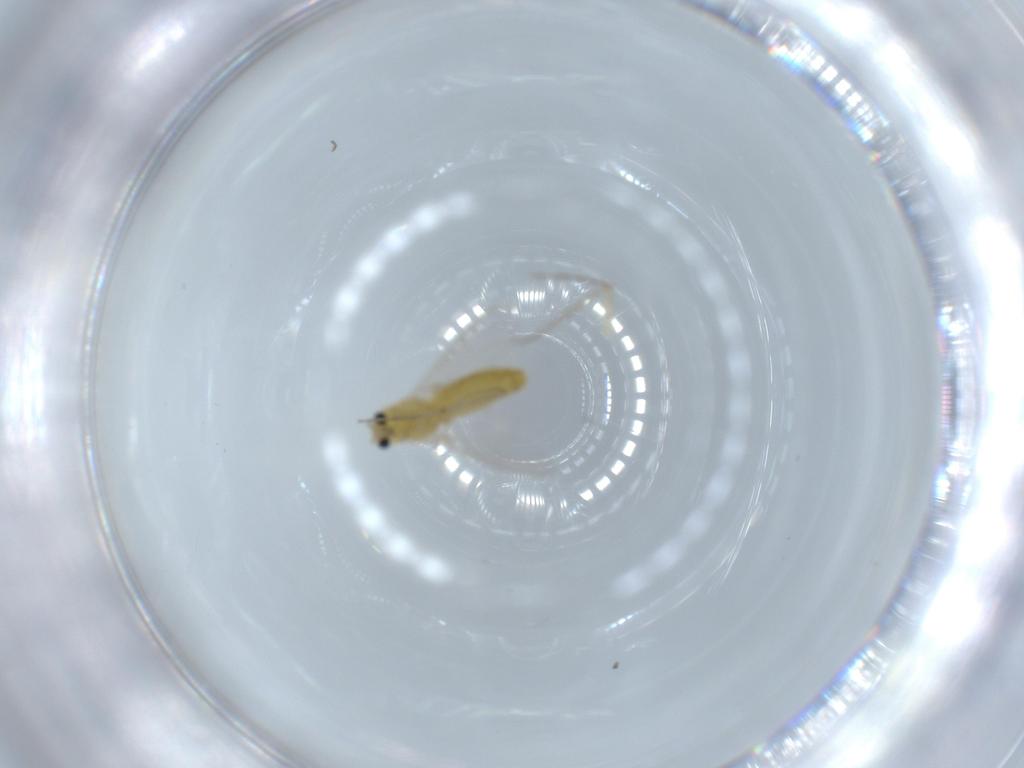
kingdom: Animalia
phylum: Arthropoda
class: Insecta
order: Diptera
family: Chironomidae
